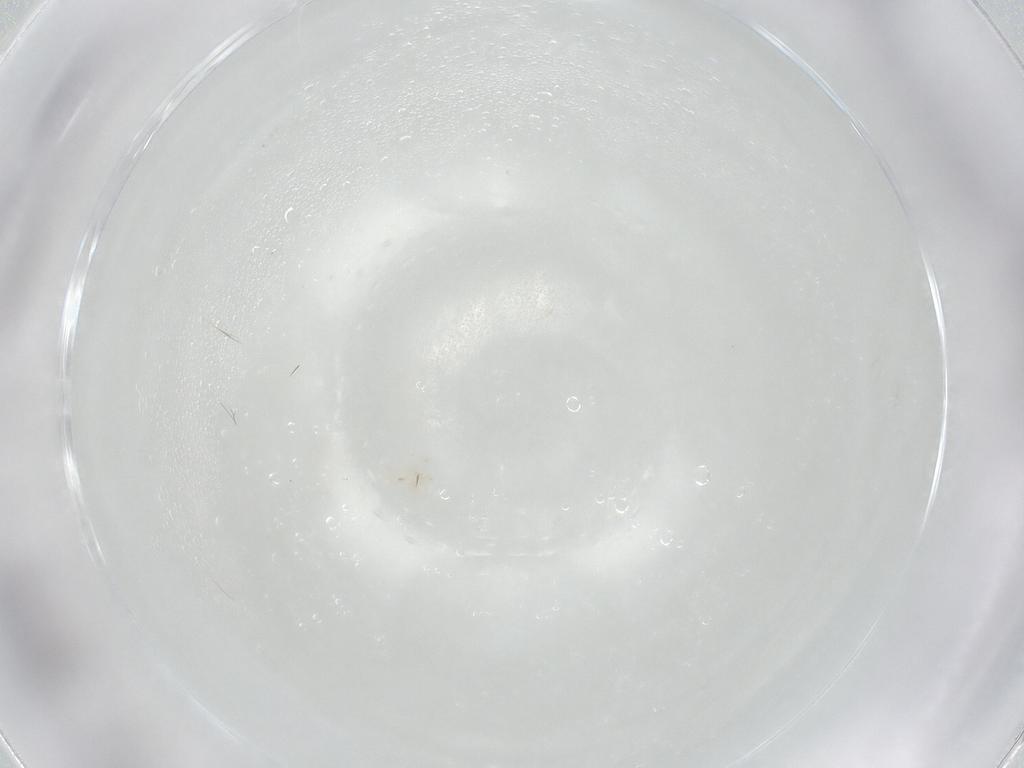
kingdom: Animalia
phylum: Arthropoda
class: Arachnida
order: Trombidiformes
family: Anystidae
